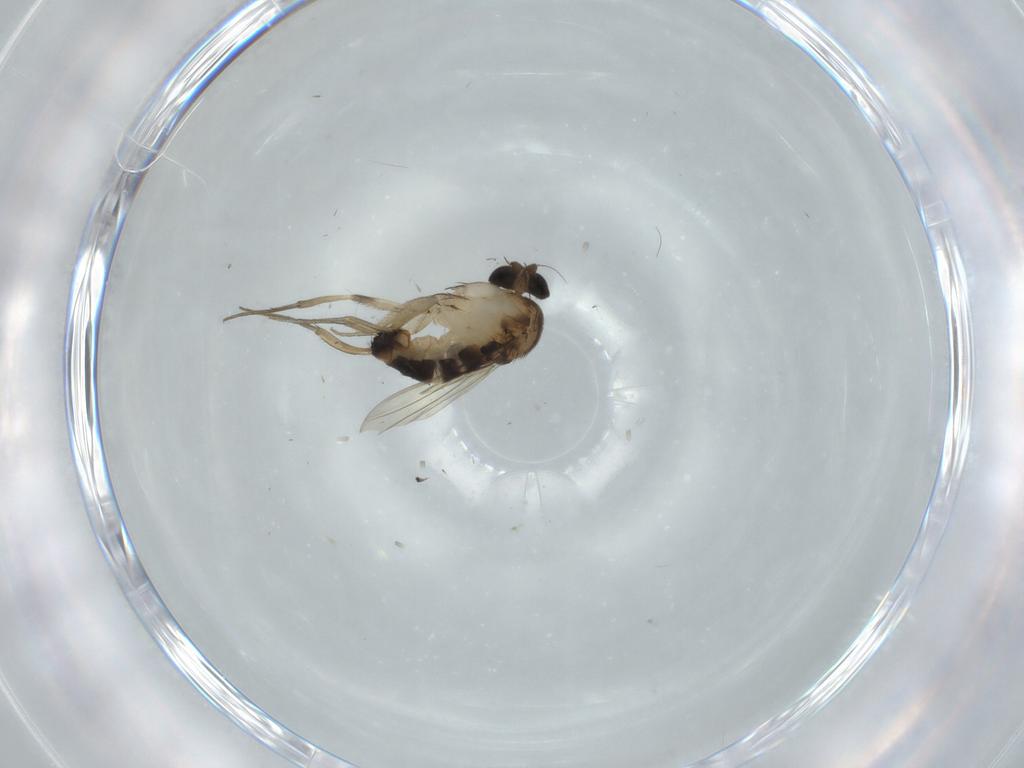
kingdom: Animalia
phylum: Arthropoda
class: Insecta
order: Diptera
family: Phoridae
